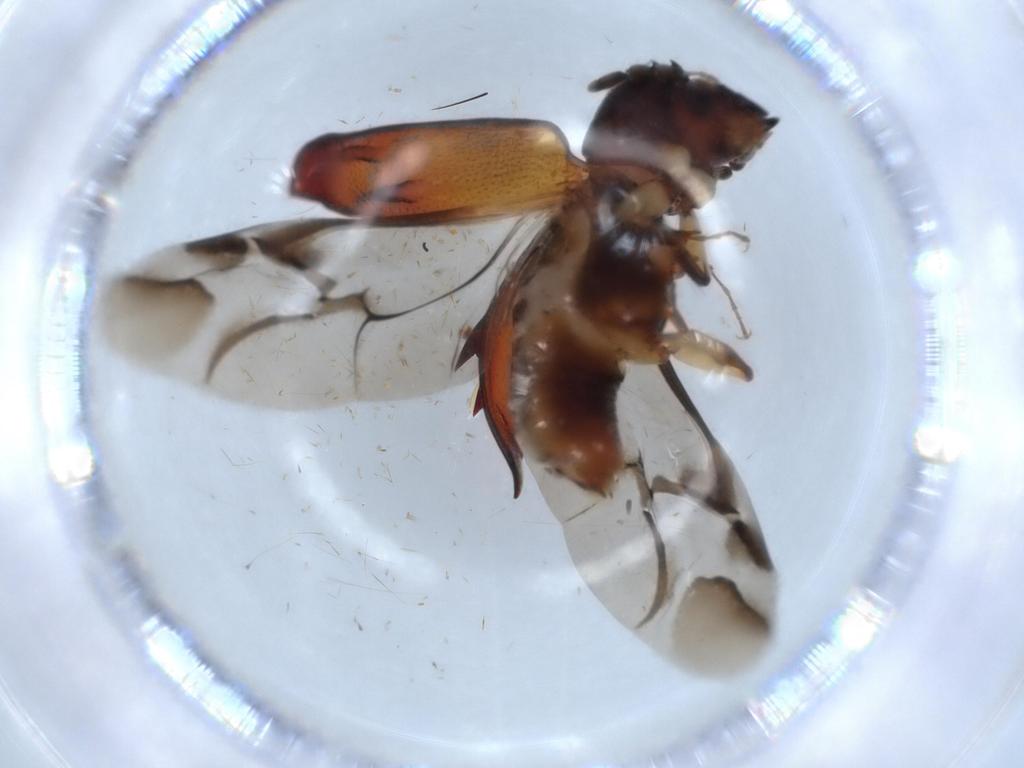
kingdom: Animalia
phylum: Arthropoda
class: Insecta
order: Coleoptera
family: Bostrichidae
